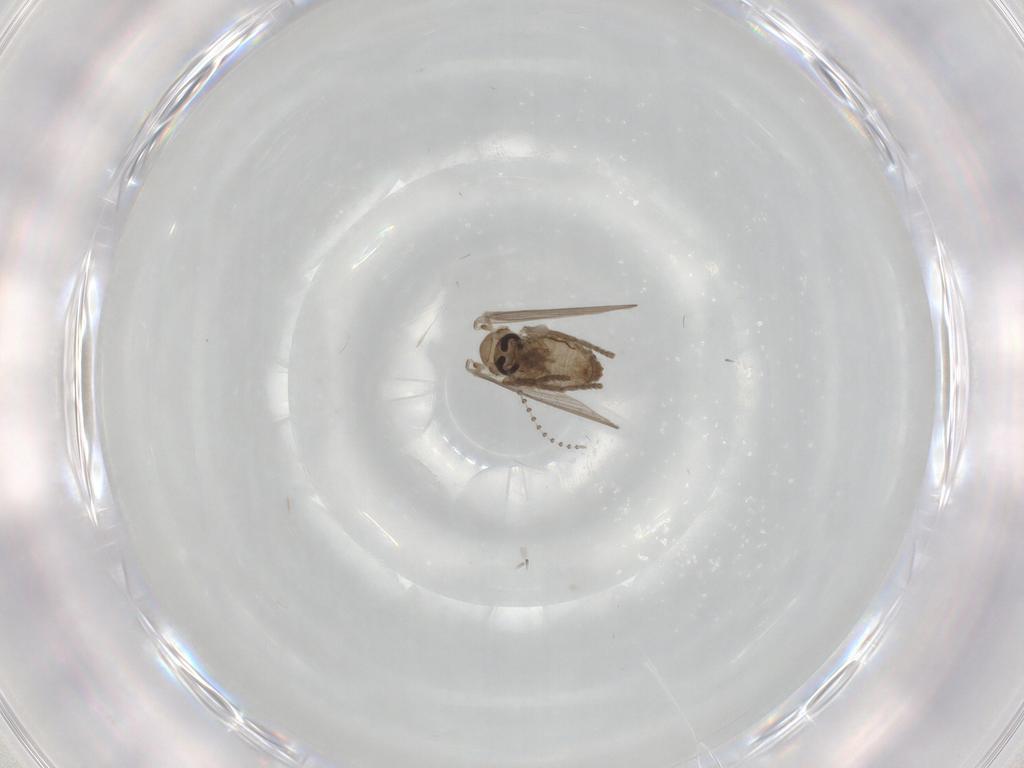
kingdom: Animalia
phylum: Arthropoda
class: Insecta
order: Diptera
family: Psychodidae
